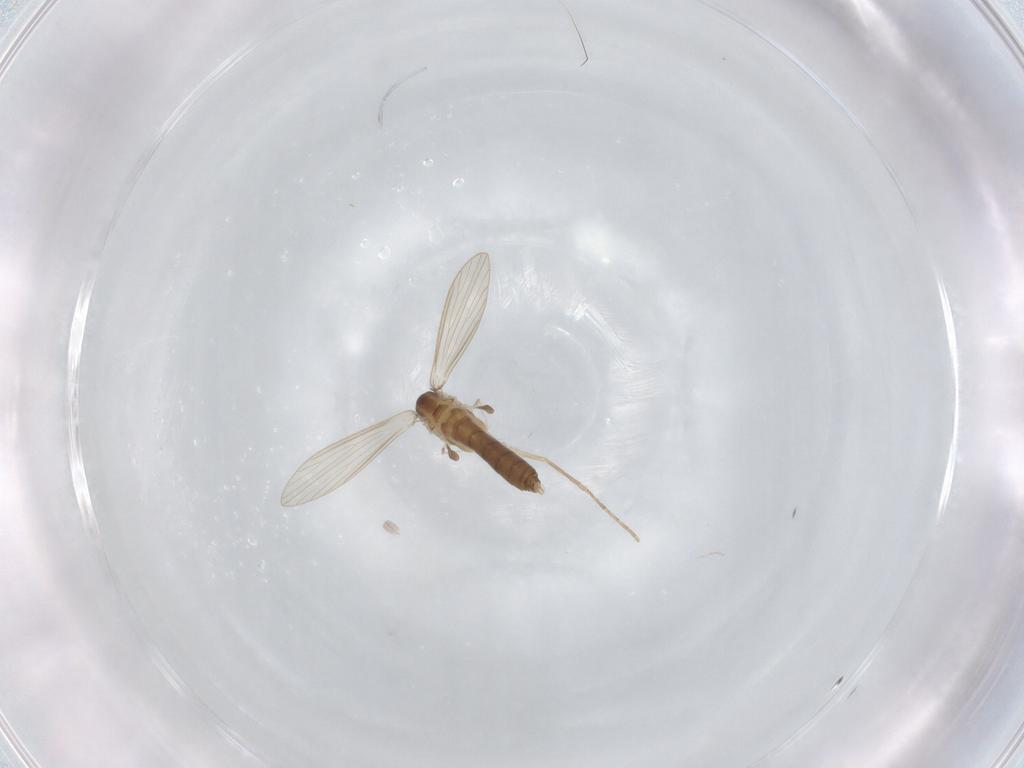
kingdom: Animalia
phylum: Arthropoda
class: Insecta
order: Diptera
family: Psychodidae
